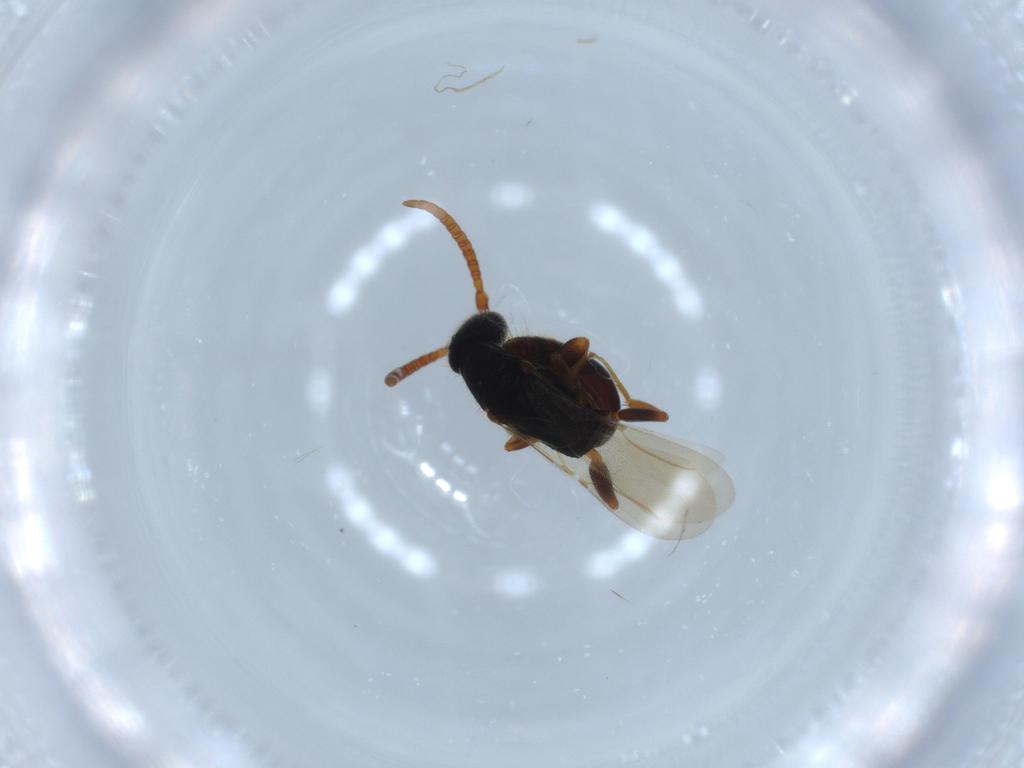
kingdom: Animalia
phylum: Arthropoda
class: Insecta
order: Hymenoptera
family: Bethylidae
